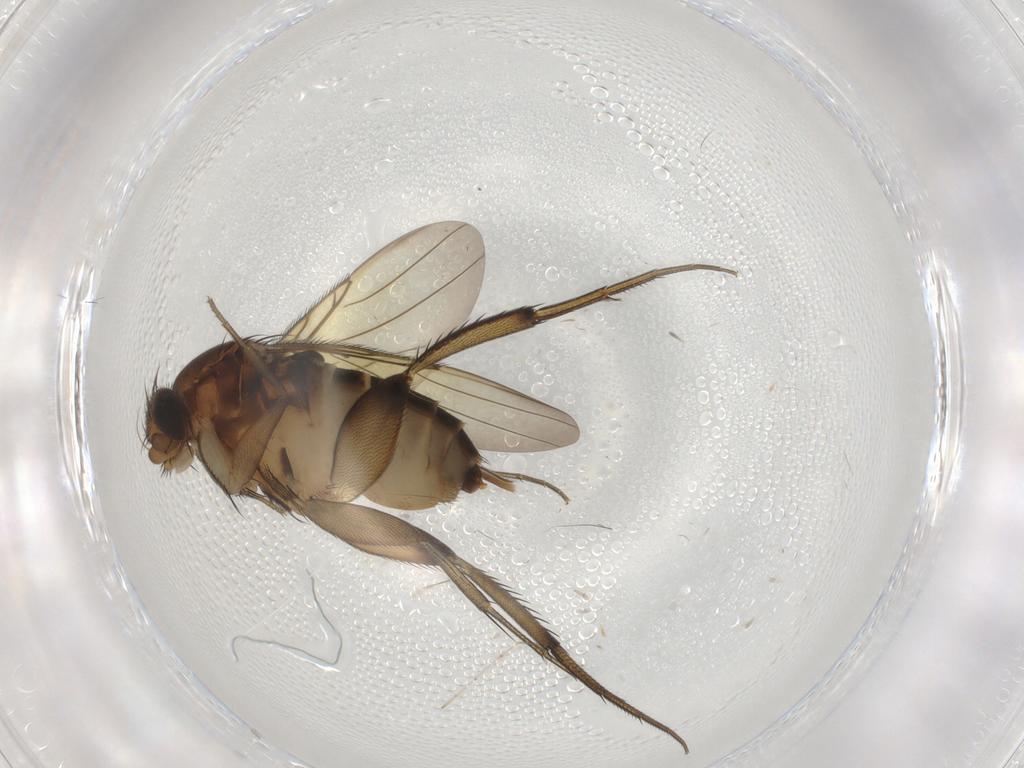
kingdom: Animalia
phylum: Arthropoda
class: Insecta
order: Diptera
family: Phoridae
